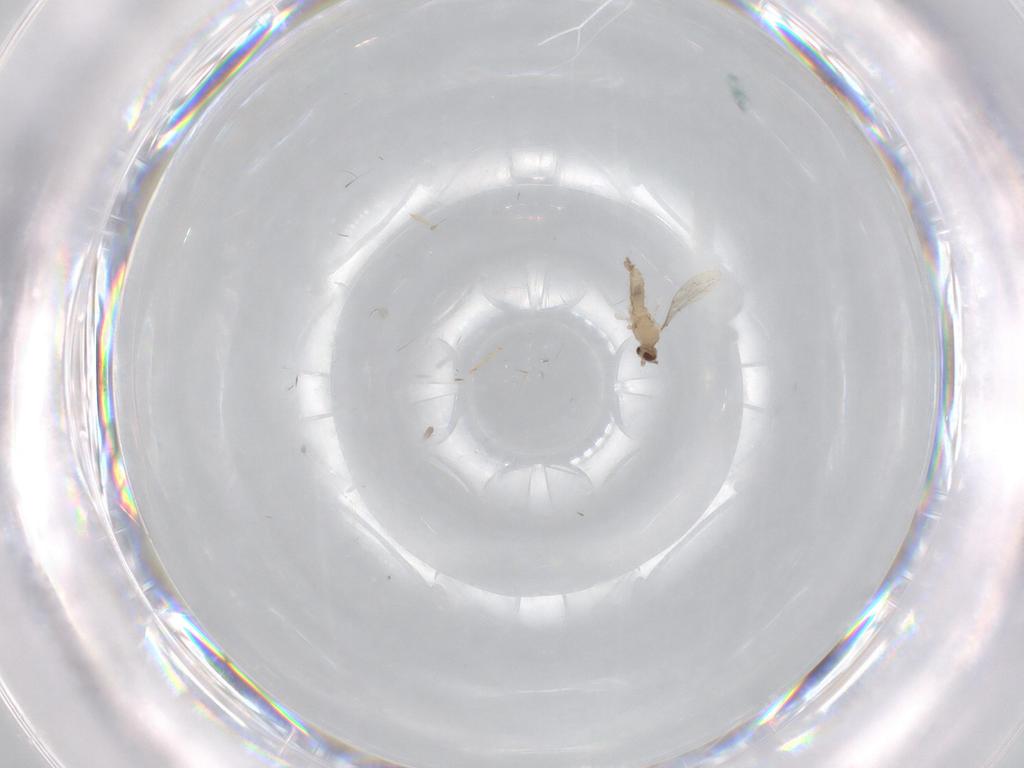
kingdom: Animalia
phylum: Arthropoda
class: Insecta
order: Diptera
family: Cecidomyiidae
